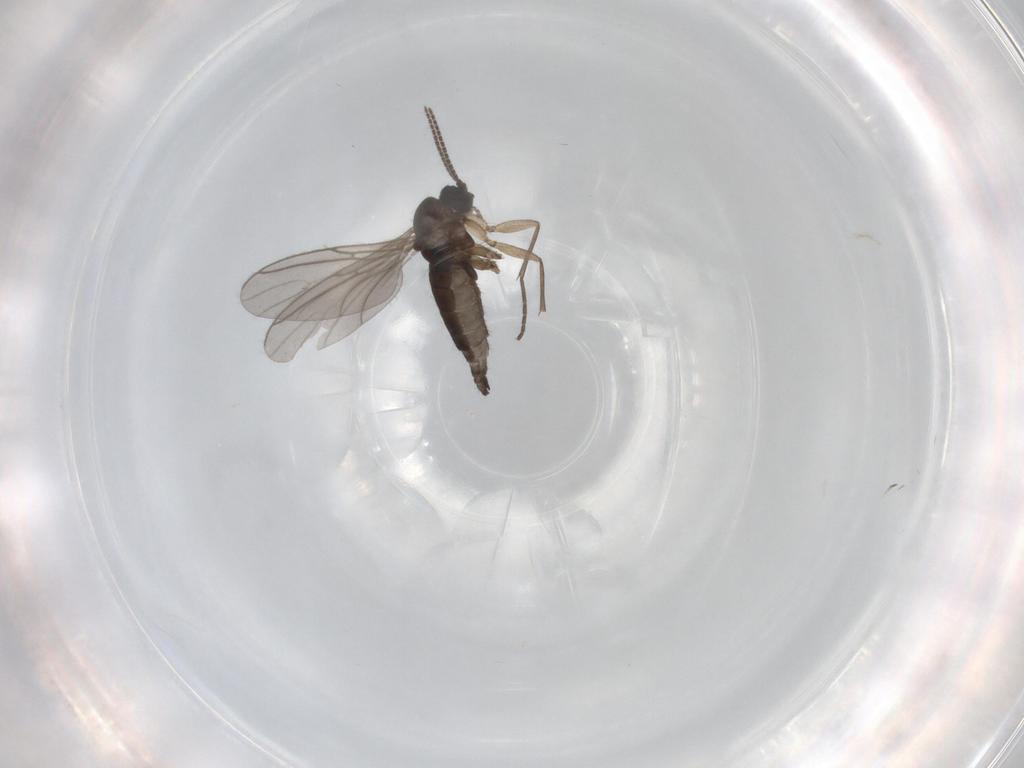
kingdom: Animalia
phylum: Arthropoda
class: Insecta
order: Diptera
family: Sciaridae
